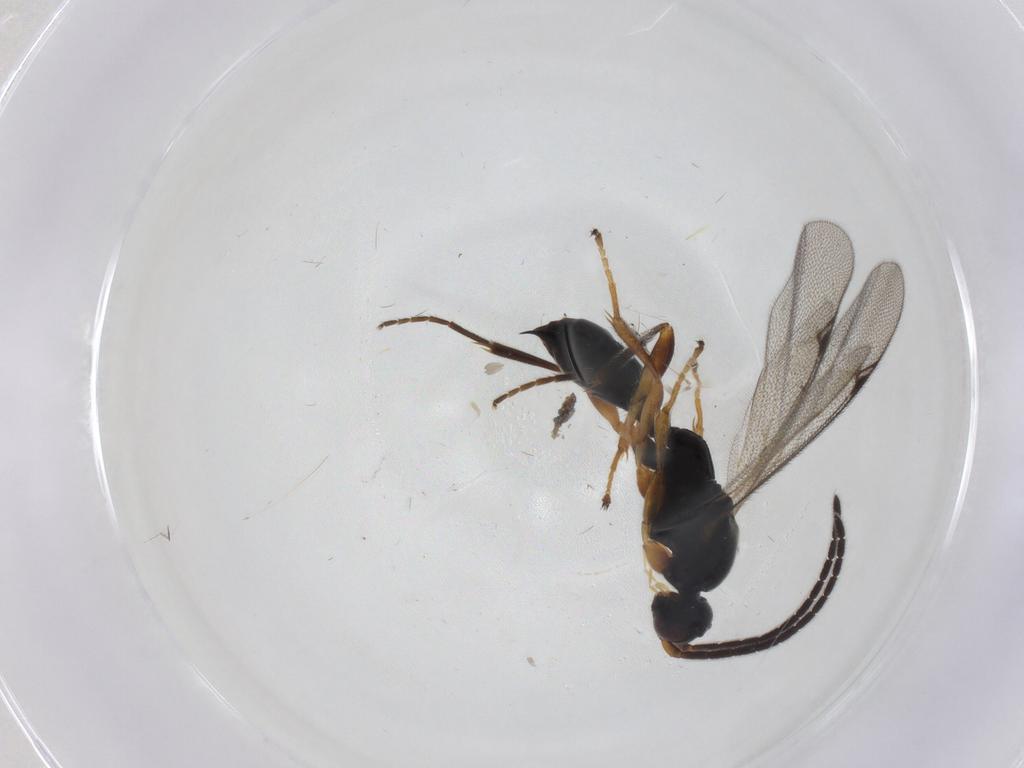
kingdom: Animalia
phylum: Arthropoda
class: Insecta
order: Hymenoptera
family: Proctotrupidae
